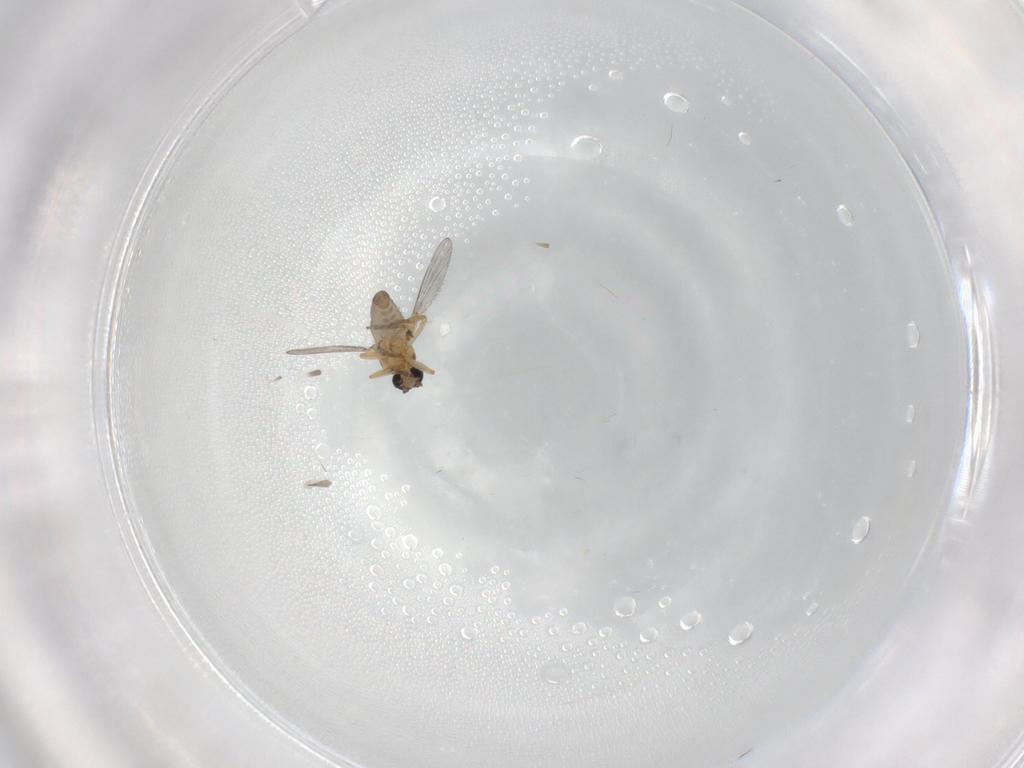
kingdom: Animalia
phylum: Arthropoda
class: Insecta
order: Diptera
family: Ceratopogonidae
